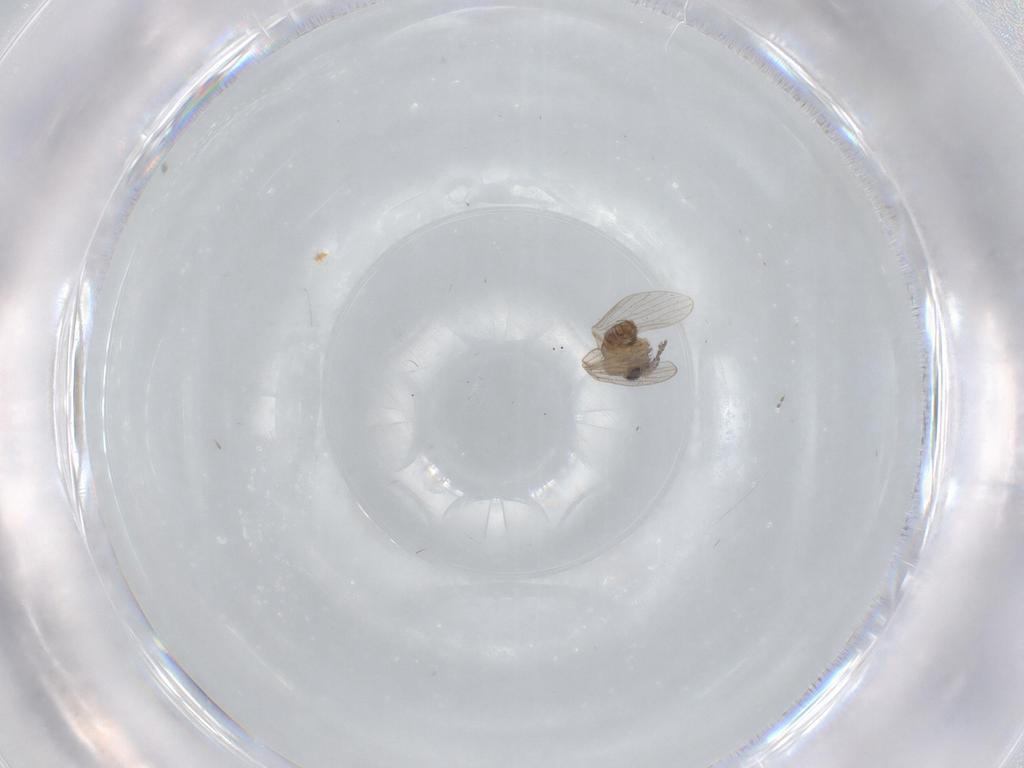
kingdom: Animalia
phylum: Arthropoda
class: Insecta
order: Diptera
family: Psychodidae
